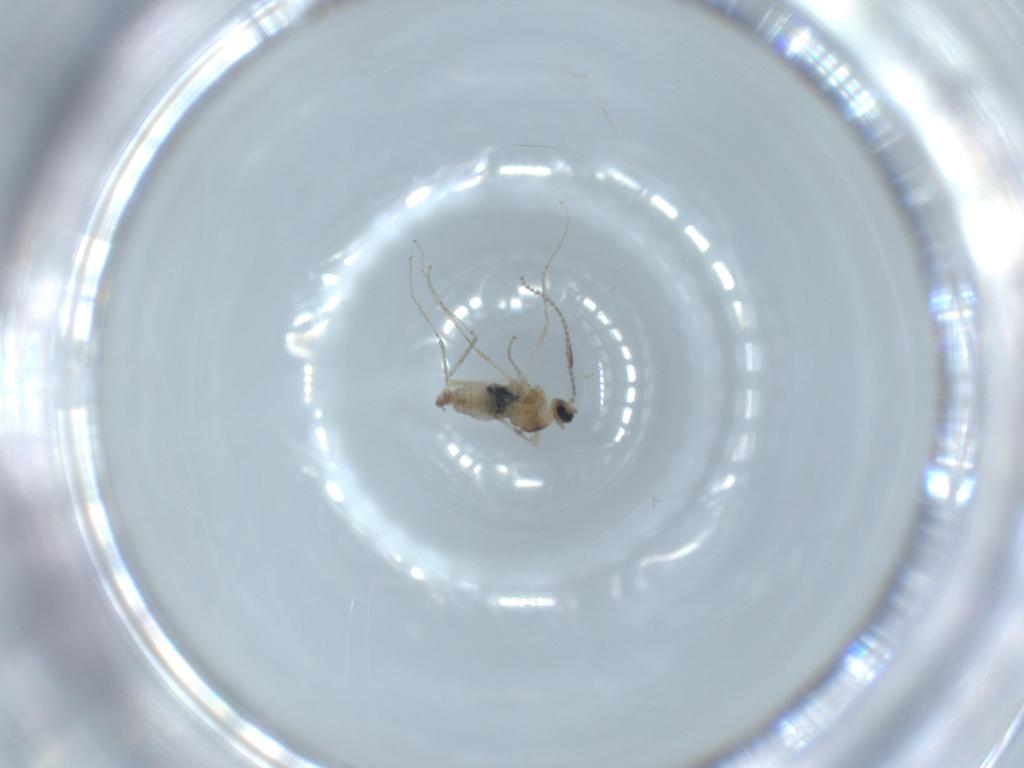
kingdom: Animalia
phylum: Arthropoda
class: Insecta
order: Diptera
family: Cecidomyiidae
